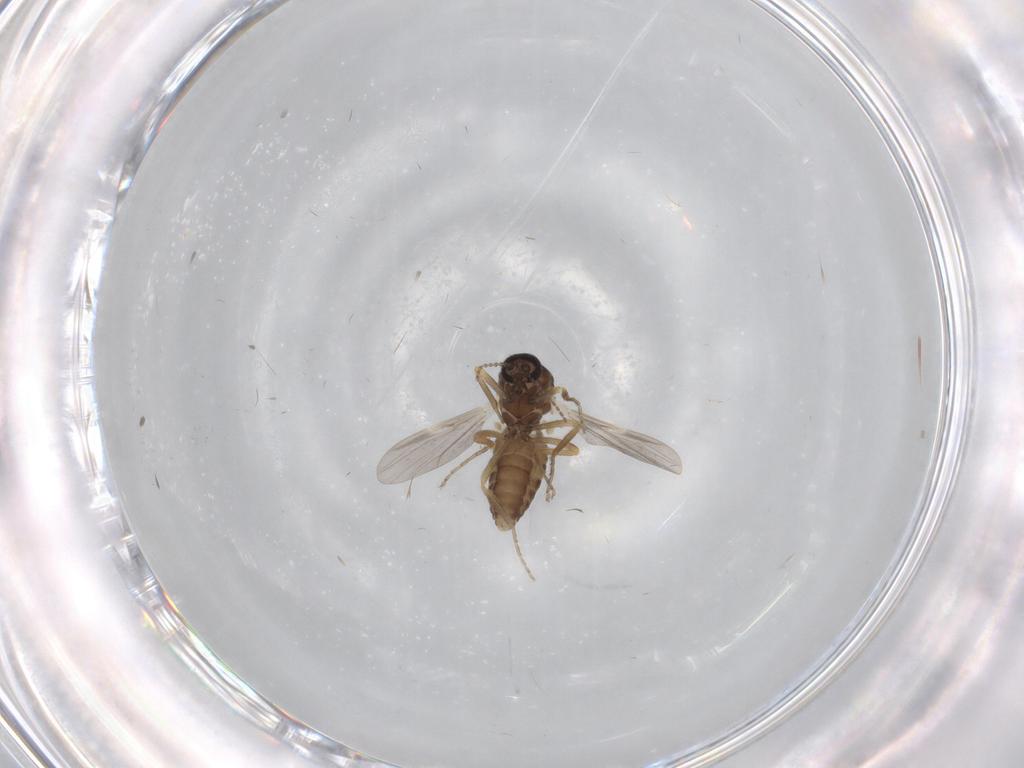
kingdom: Animalia
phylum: Arthropoda
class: Insecta
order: Diptera
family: Ceratopogonidae
